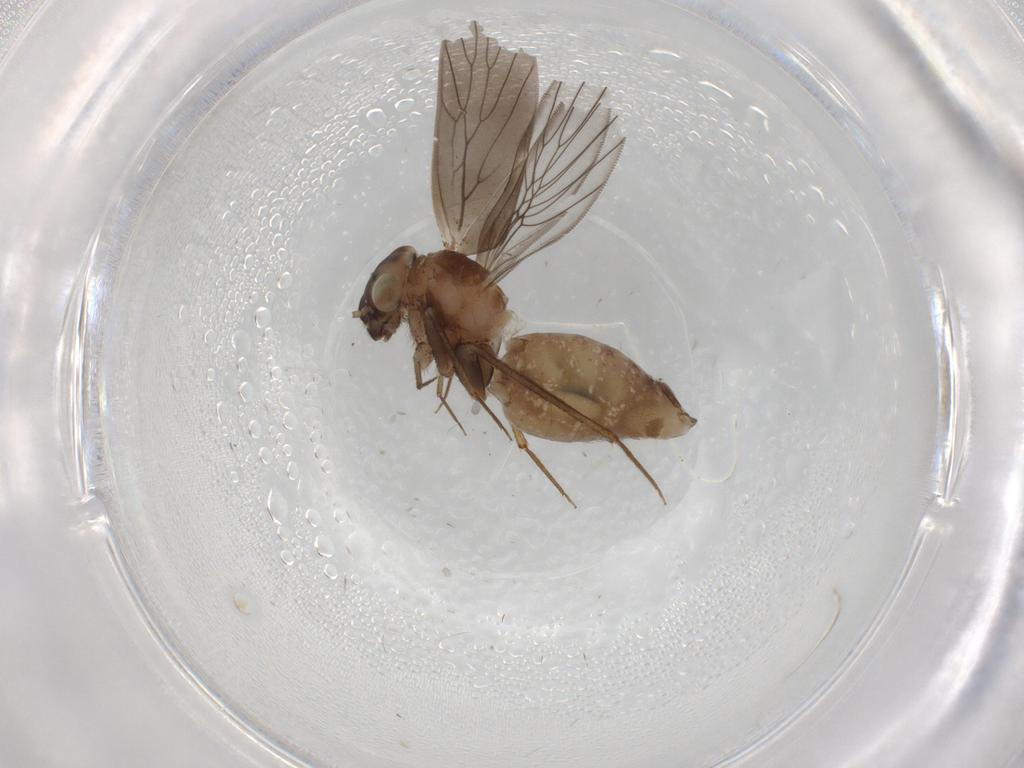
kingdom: Animalia
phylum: Arthropoda
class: Insecta
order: Psocodea
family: Lepidopsocidae
